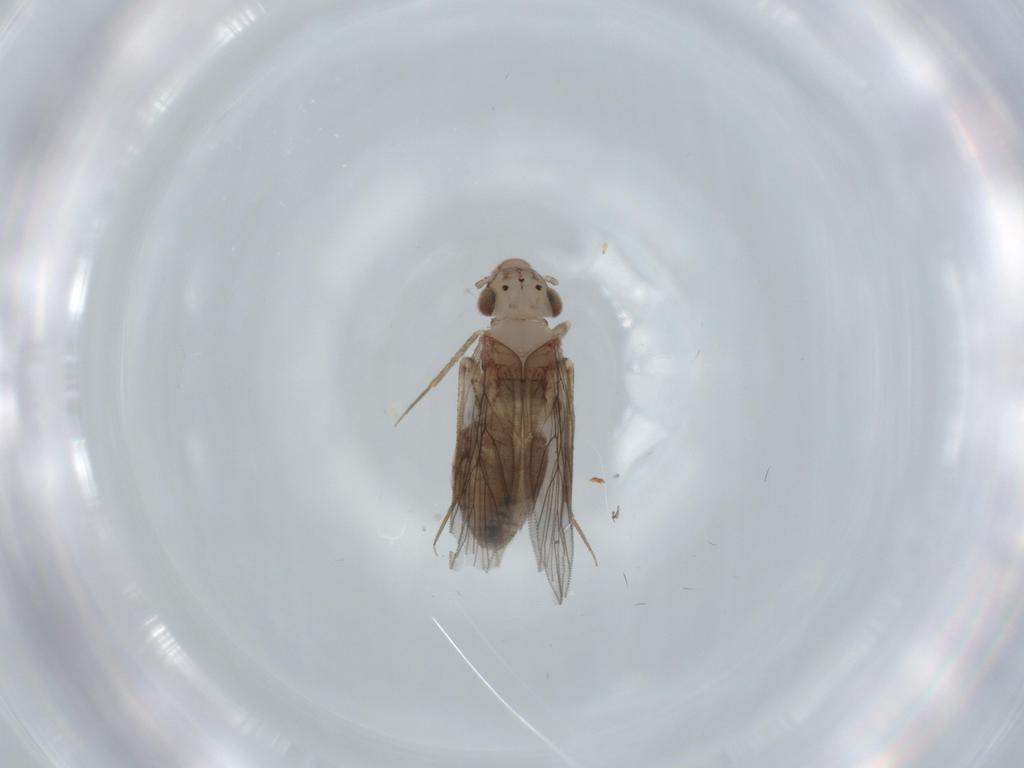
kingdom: Animalia
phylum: Arthropoda
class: Insecta
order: Psocodea
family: Lepidopsocidae
